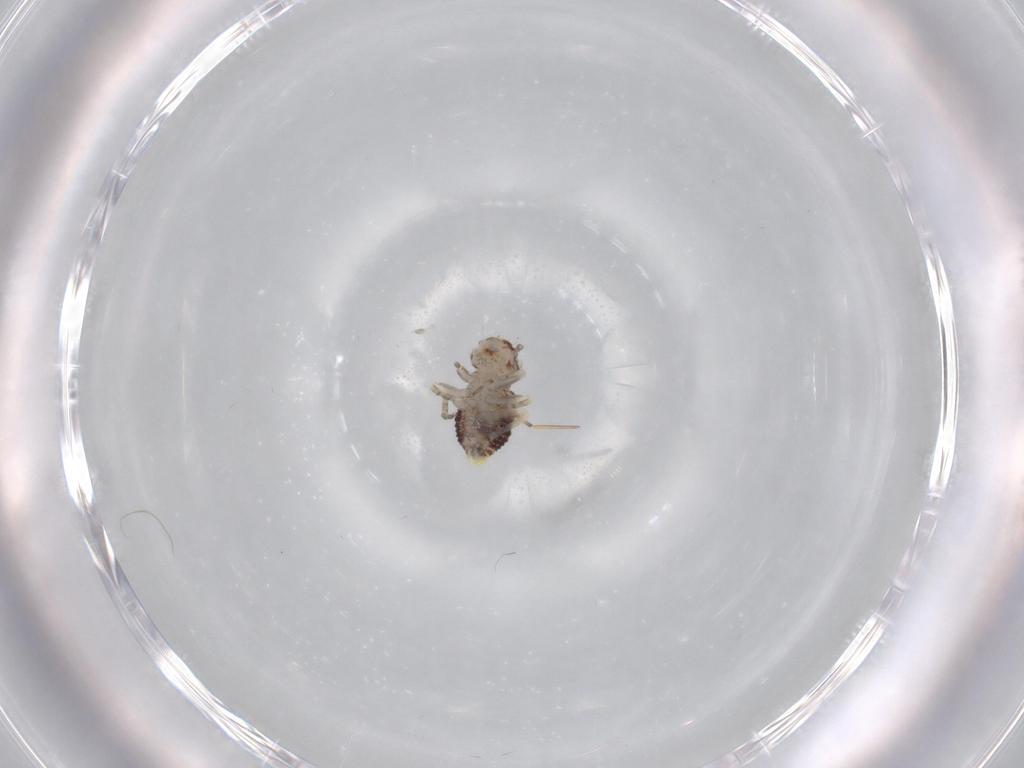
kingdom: Animalia
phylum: Arthropoda
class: Insecta
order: Psocodea
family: Psocidae
